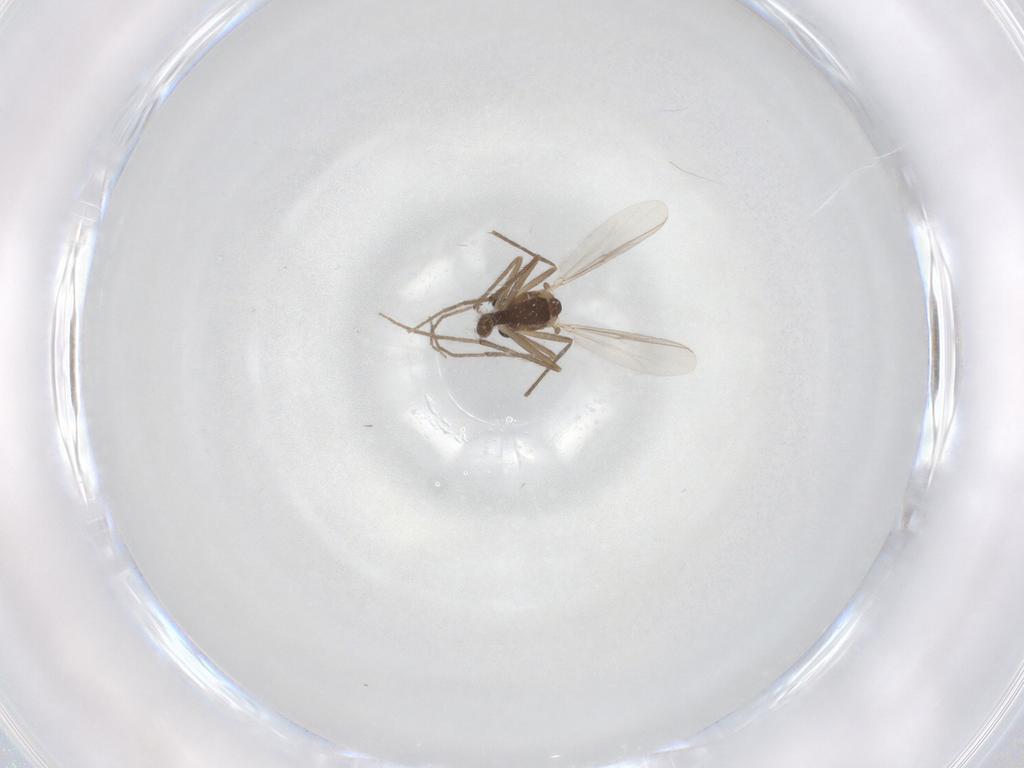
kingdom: Animalia
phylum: Arthropoda
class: Insecta
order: Diptera
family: Chironomidae
